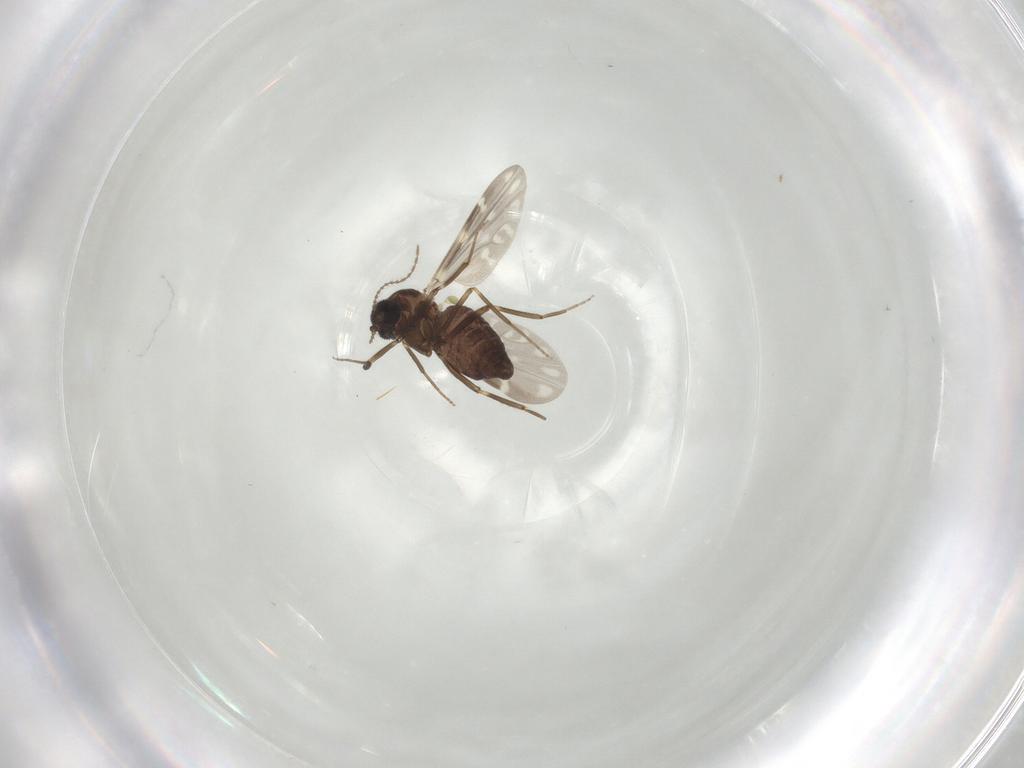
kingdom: Animalia
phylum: Arthropoda
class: Insecta
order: Diptera
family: Ceratopogonidae
